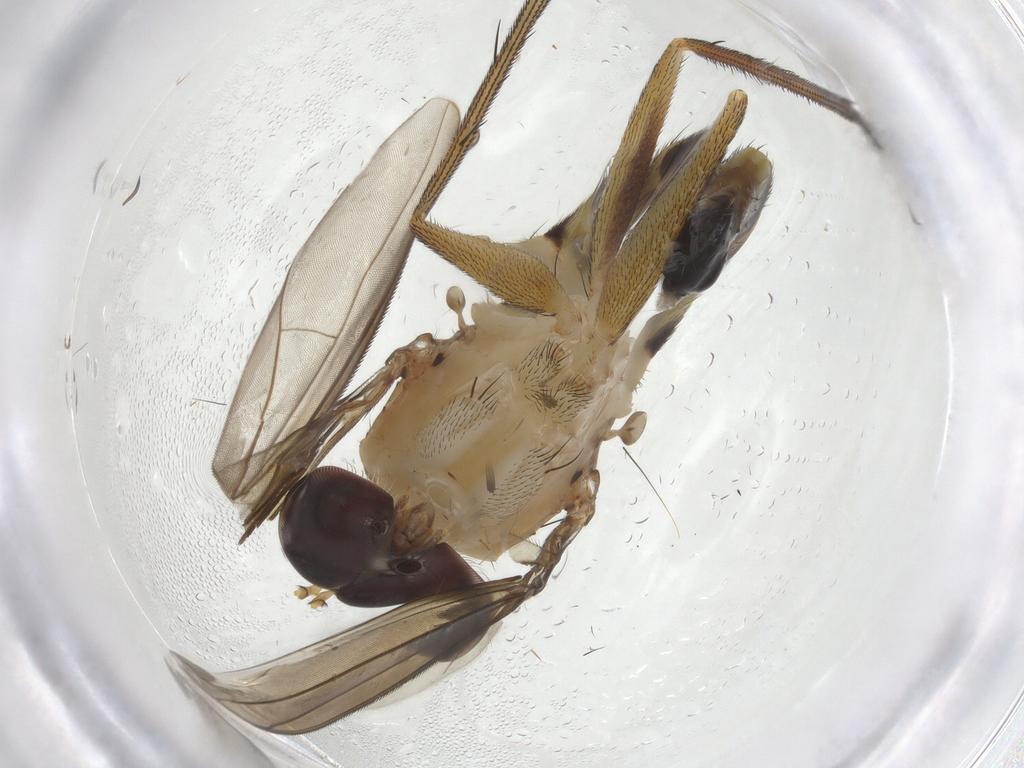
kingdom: Animalia
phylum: Arthropoda
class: Insecta
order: Diptera
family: Dolichopodidae
